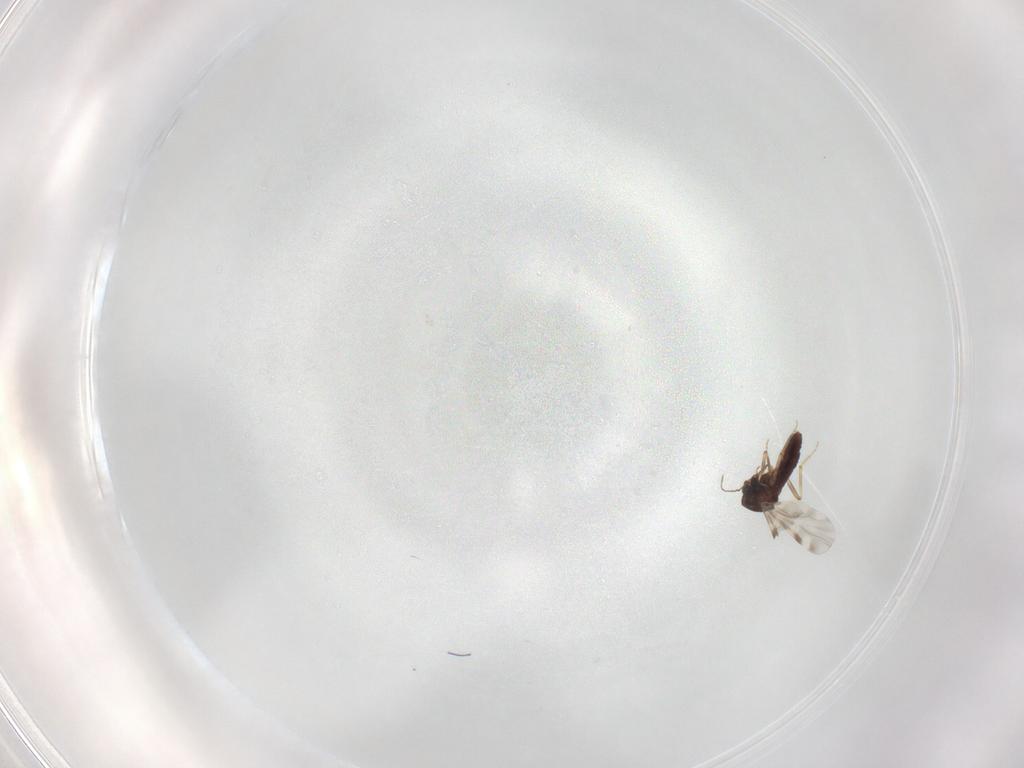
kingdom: Animalia
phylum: Arthropoda
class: Insecta
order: Diptera
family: Ceratopogonidae
